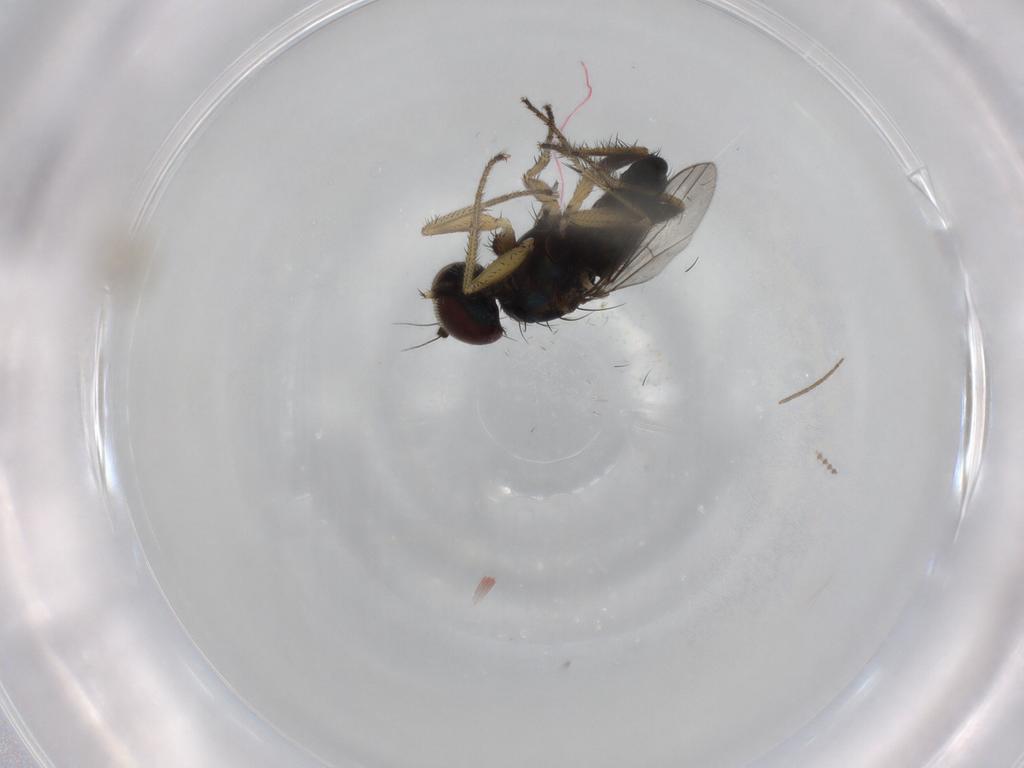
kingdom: Animalia
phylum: Arthropoda
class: Insecta
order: Diptera
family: Dolichopodidae
